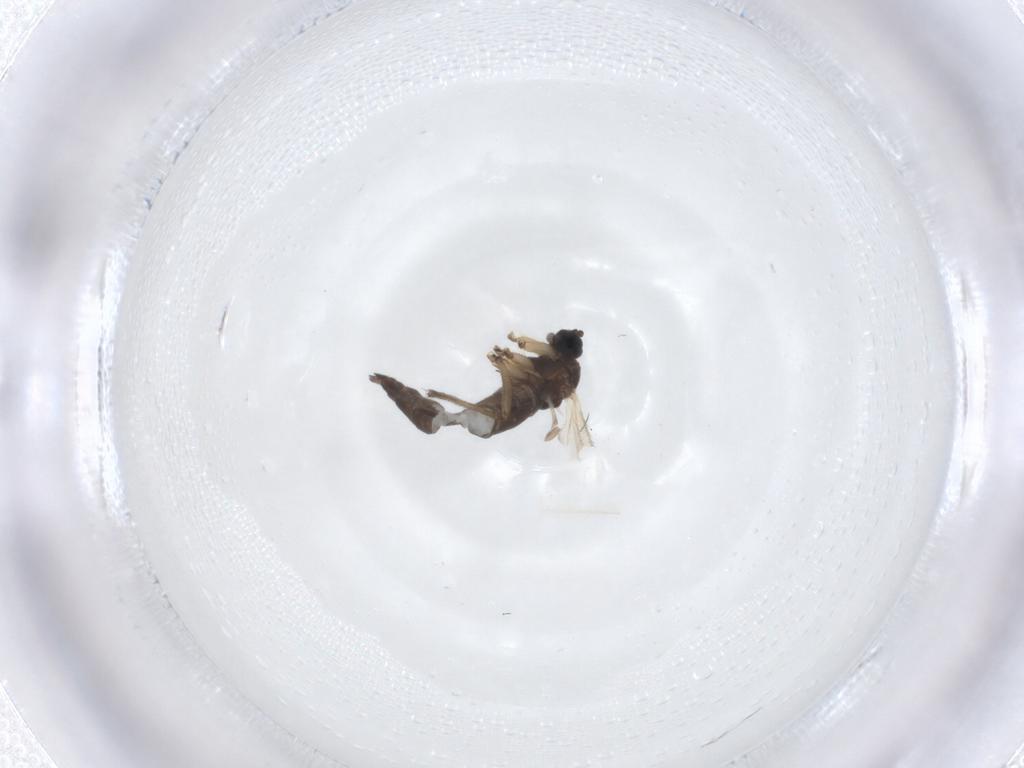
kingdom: Animalia
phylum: Arthropoda
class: Insecta
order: Diptera
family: Sciaridae
